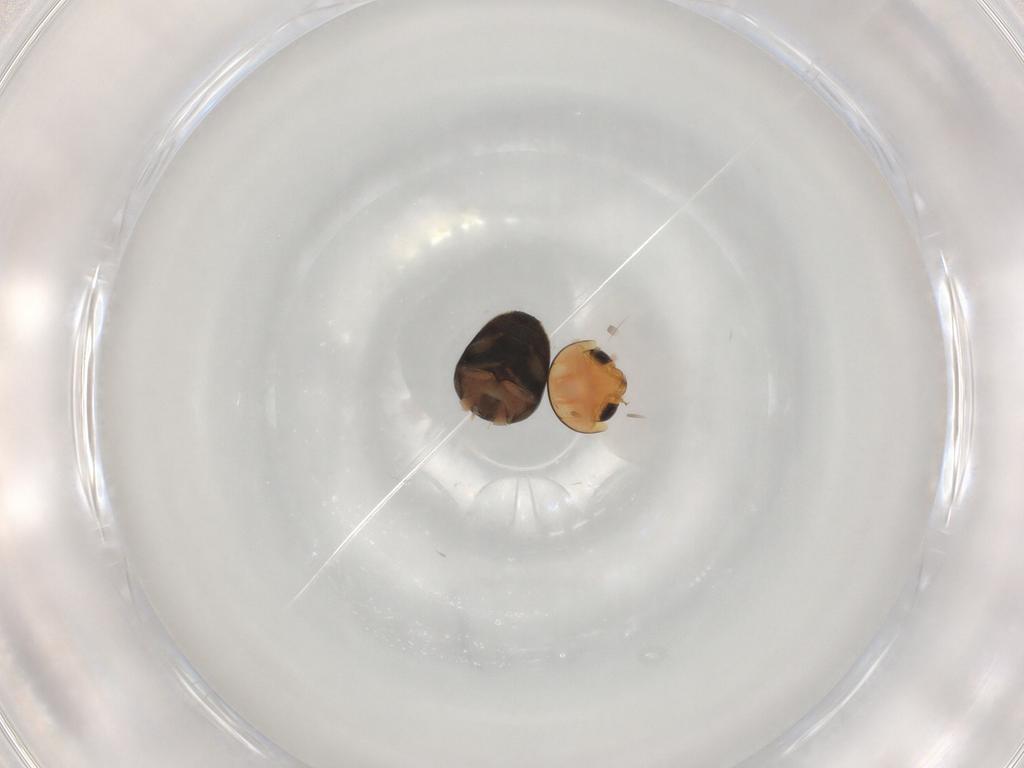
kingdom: Animalia
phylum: Arthropoda
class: Insecta
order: Coleoptera
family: Cybocephalidae
